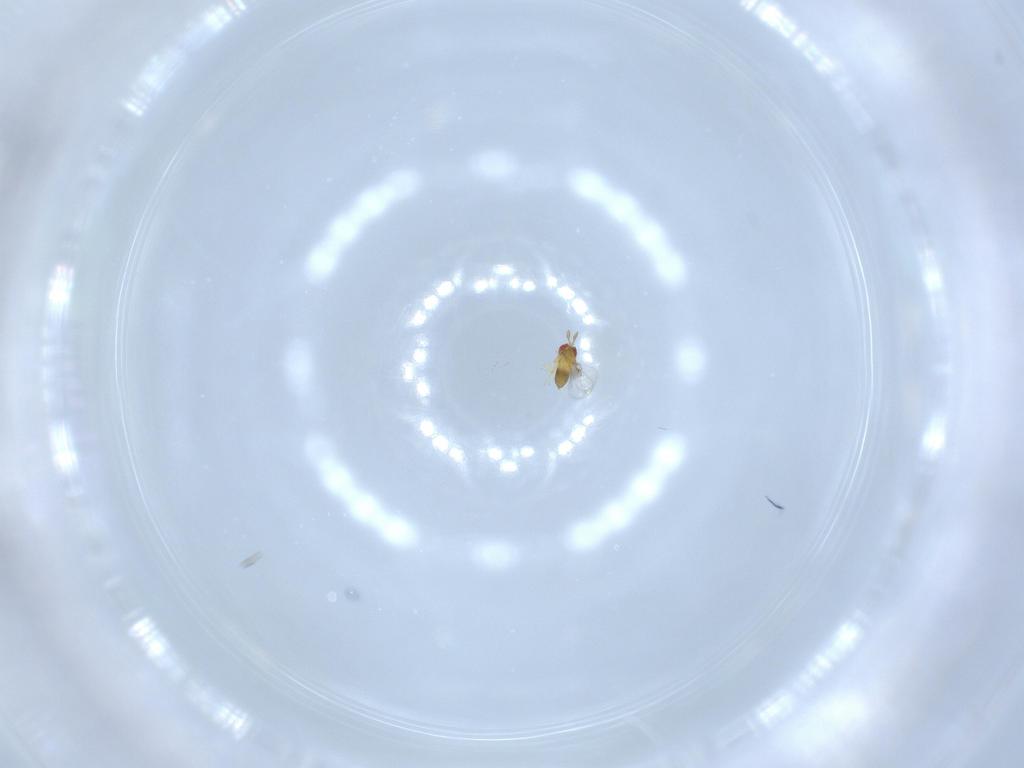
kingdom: Animalia
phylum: Arthropoda
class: Insecta
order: Hymenoptera
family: Trichogrammatidae
